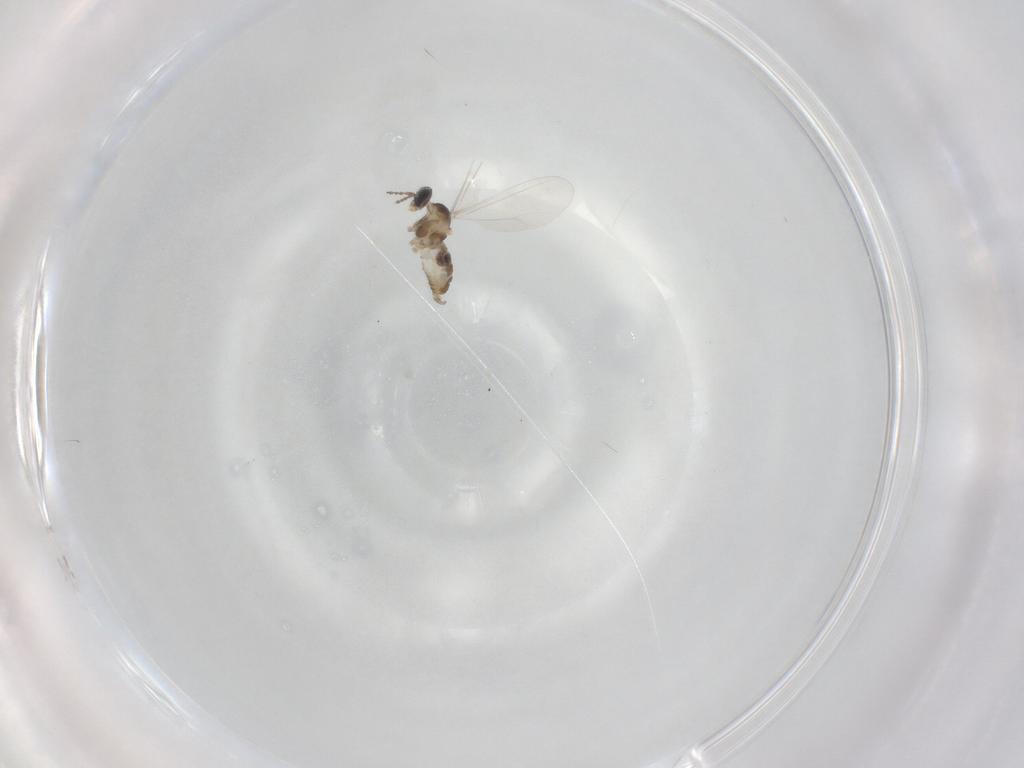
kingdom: Animalia
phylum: Arthropoda
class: Insecta
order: Diptera
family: Cecidomyiidae
